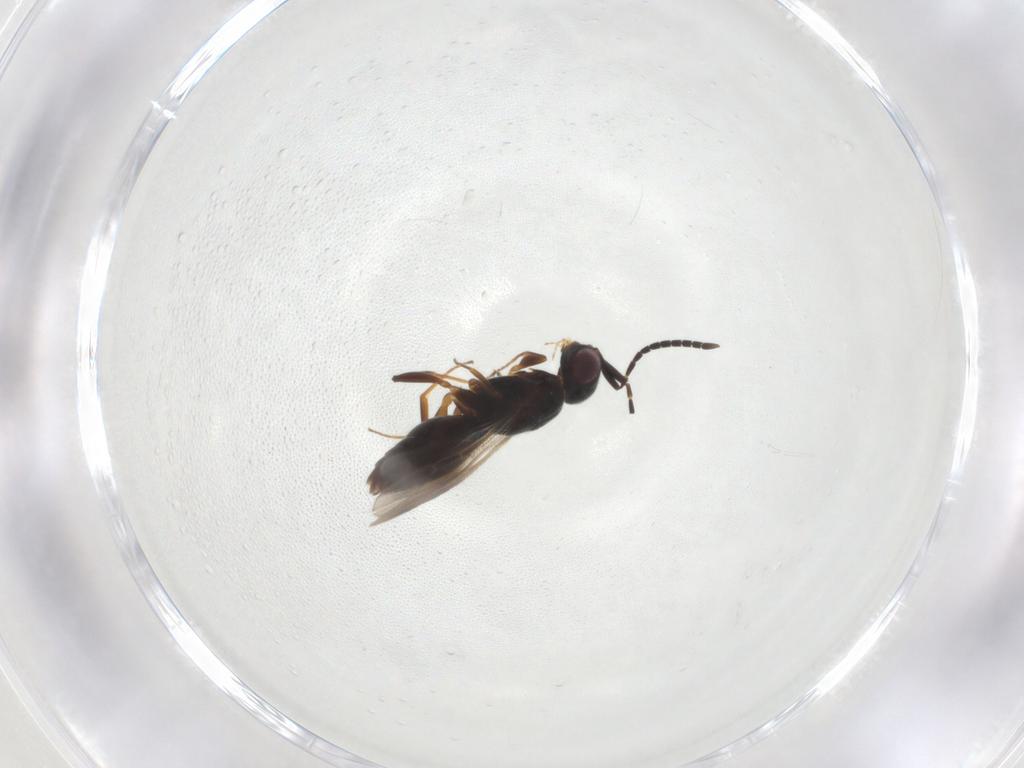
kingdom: Animalia
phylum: Arthropoda
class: Insecta
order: Hymenoptera
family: Megaspilidae
